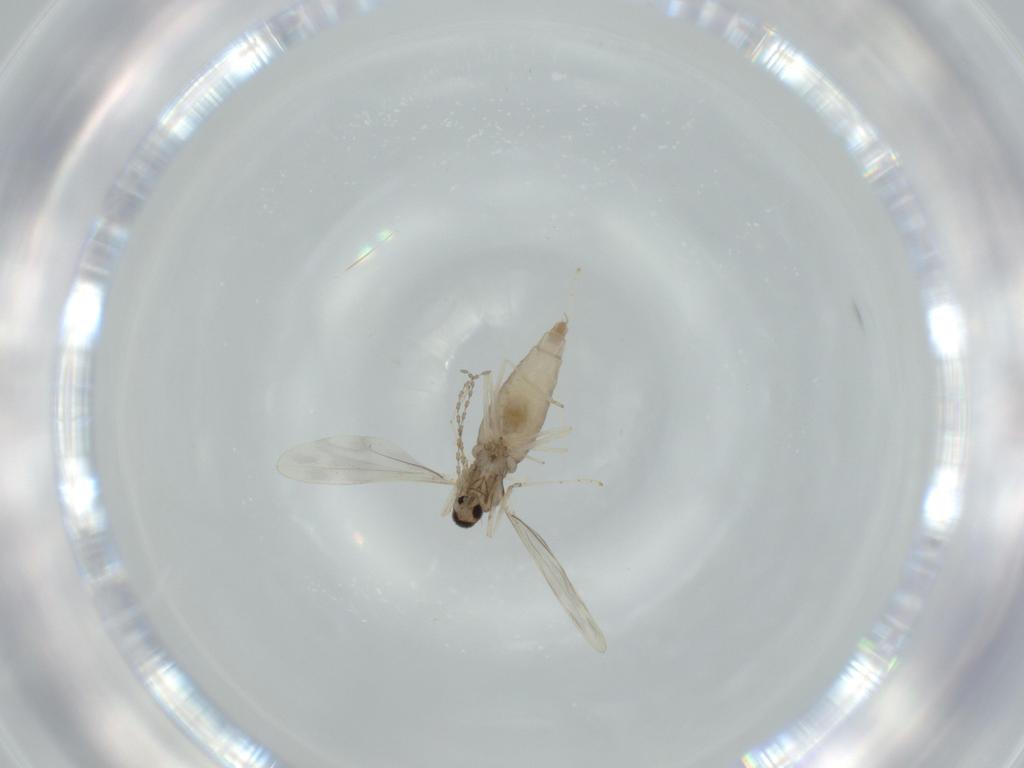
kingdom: Animalia
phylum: Arthropoda
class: Insecta
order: Diptera
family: Cecidomyiidae
